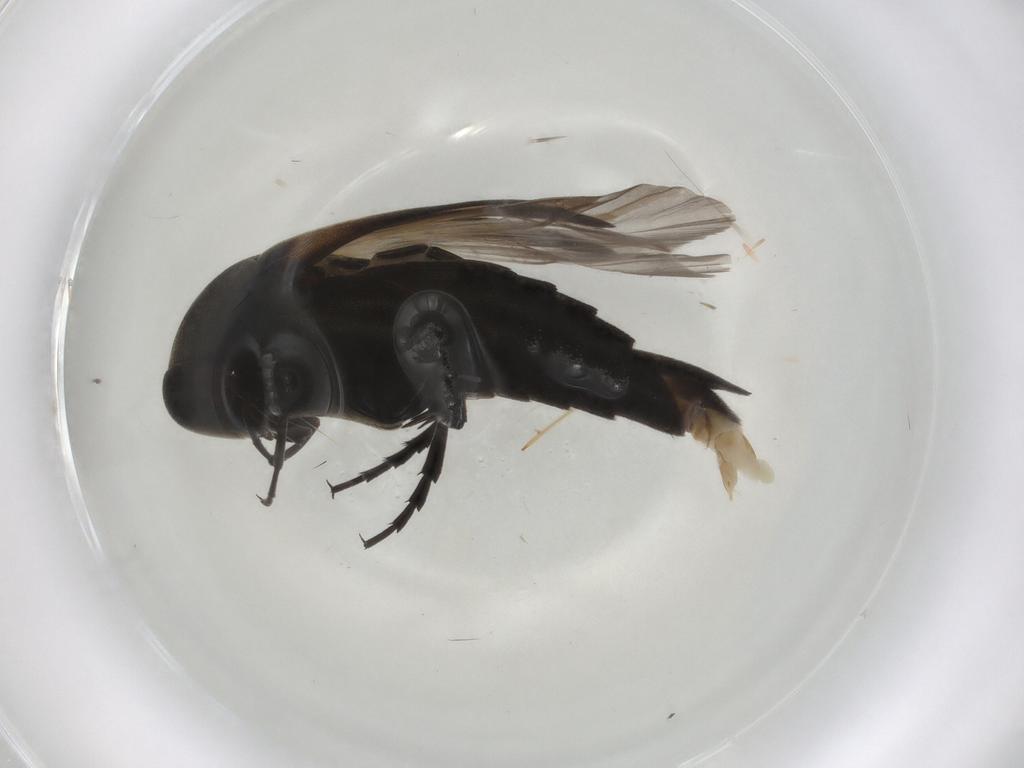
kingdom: Animalia
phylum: Arthropoda
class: Insecta
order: Coleoptera
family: Mordellidae
